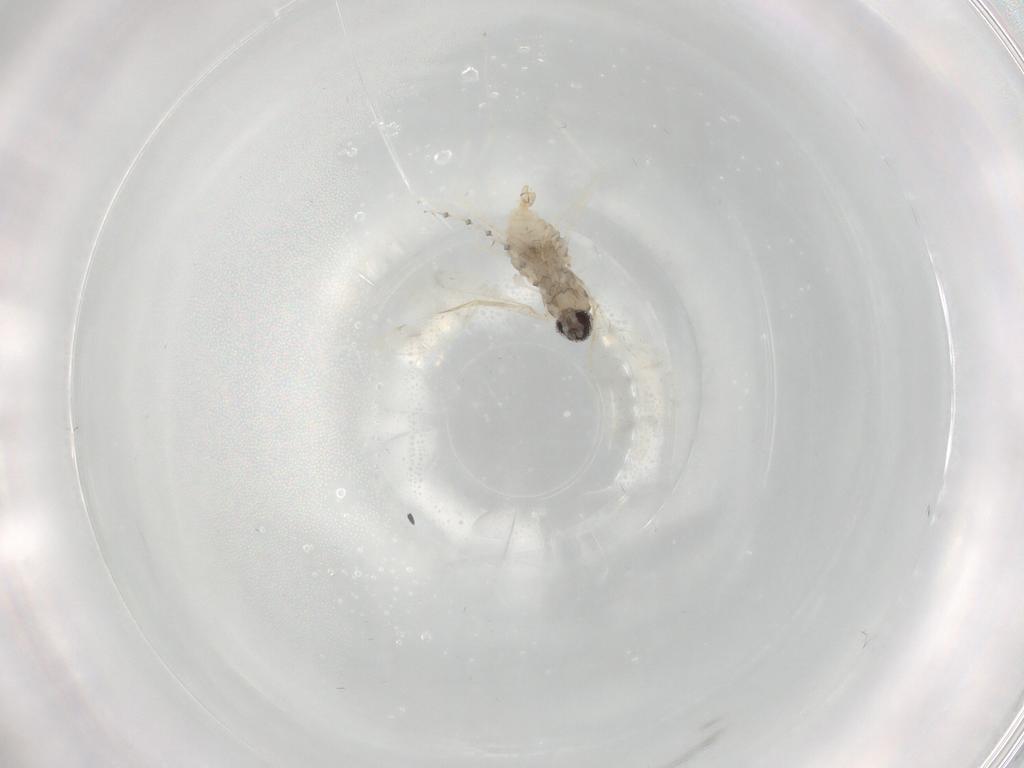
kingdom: Animalia
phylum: Arthropoda
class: Insecta
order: Diptera
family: Cecidomyiidae
